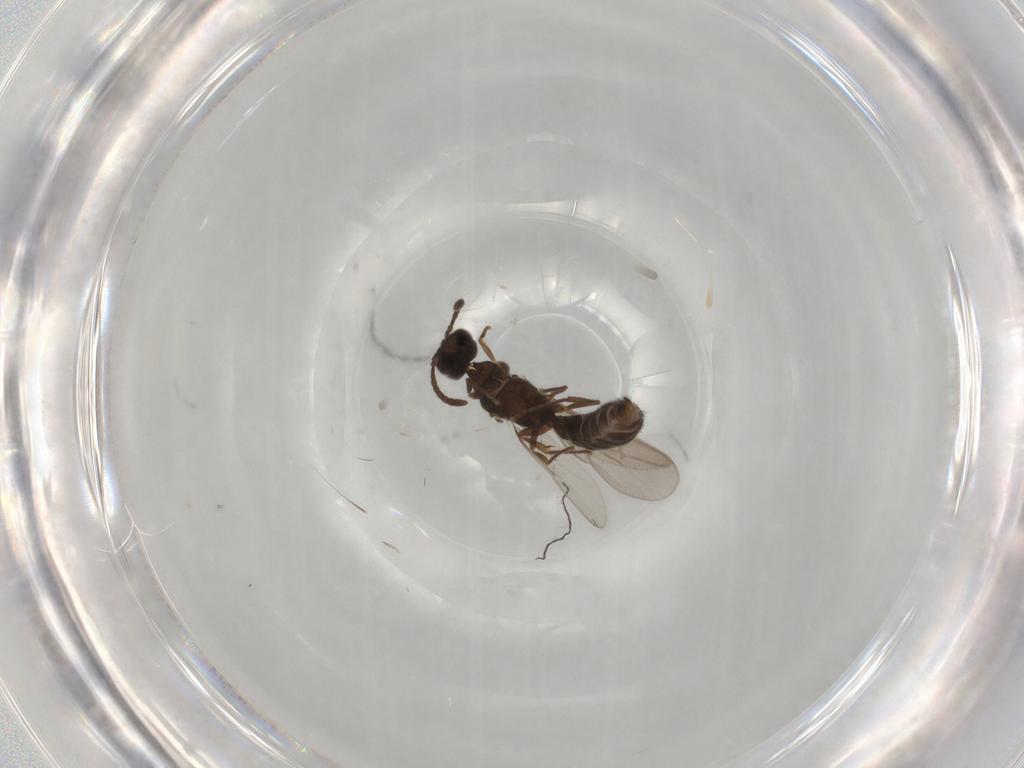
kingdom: Animalia
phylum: Arthropoda
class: Insecta
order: Hymenoptera
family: Formicidae
